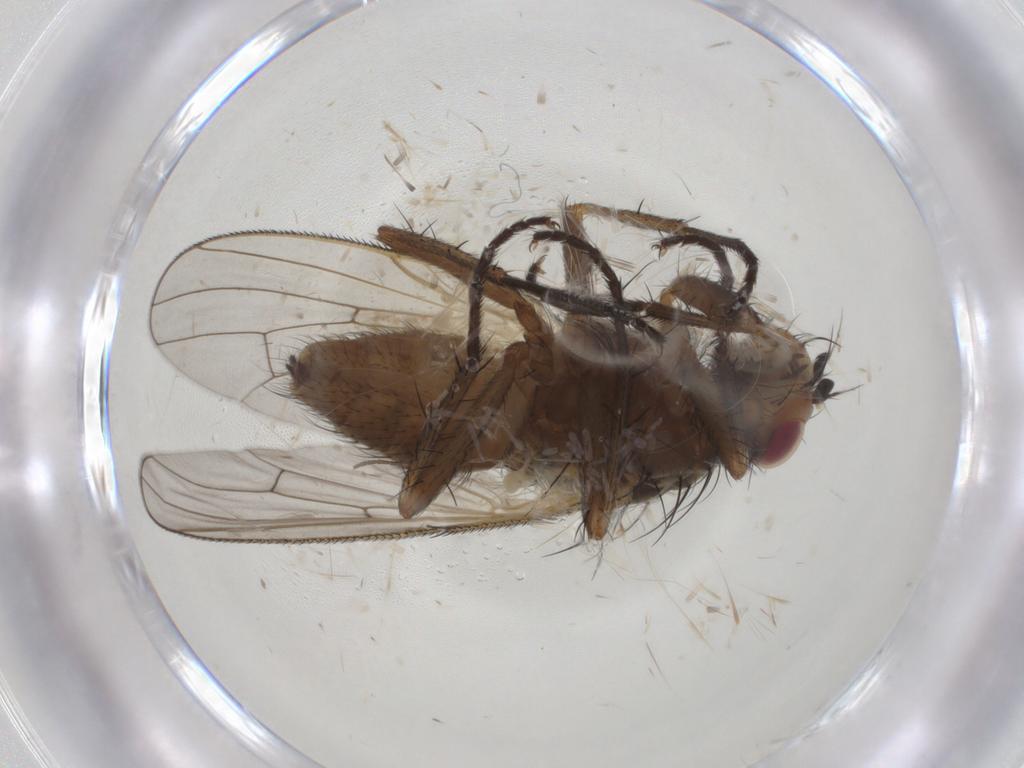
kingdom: Animalia
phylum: Arthropoda
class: Insecta
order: Diptera
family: Anthomyiidae
